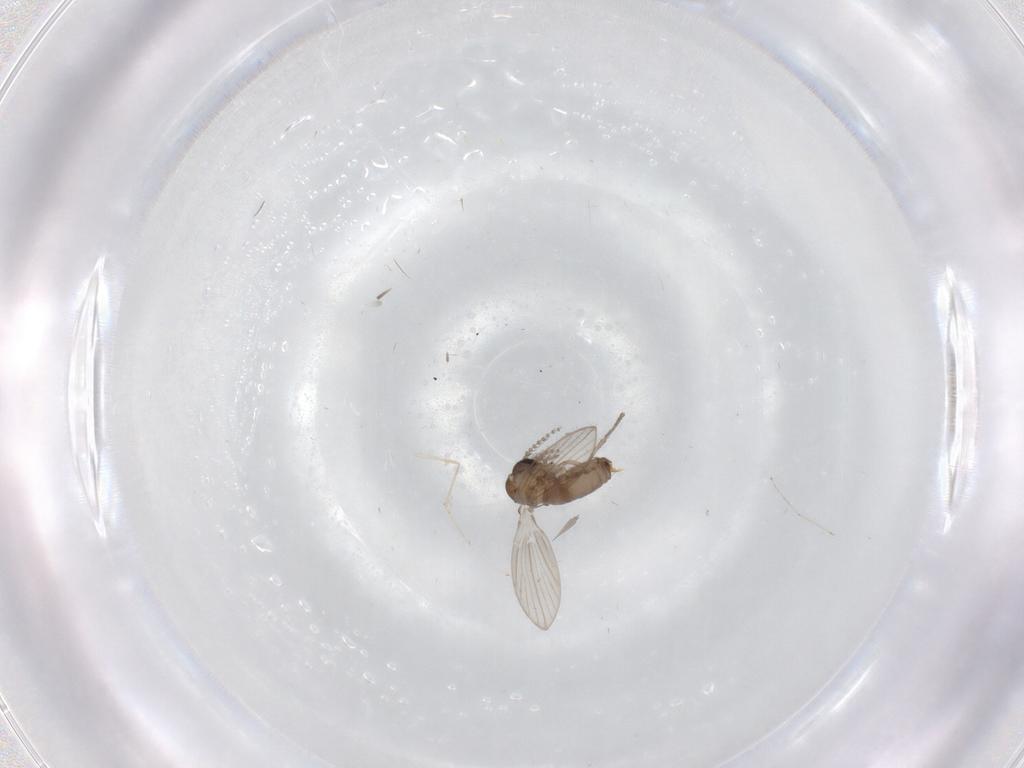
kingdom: Animalia
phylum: Arthropoda
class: Insecta
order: Diptera
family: Psychodidae
